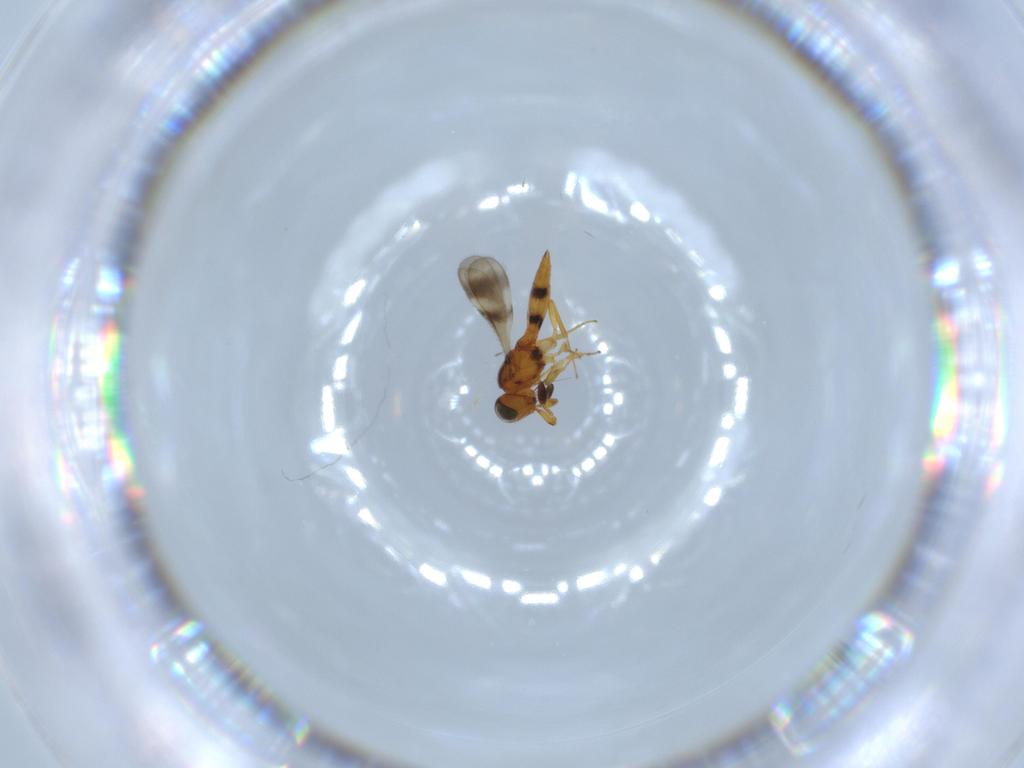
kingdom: Animalia
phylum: Arthropoda
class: Insecta
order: Hymenoptera
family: Scelionidae
